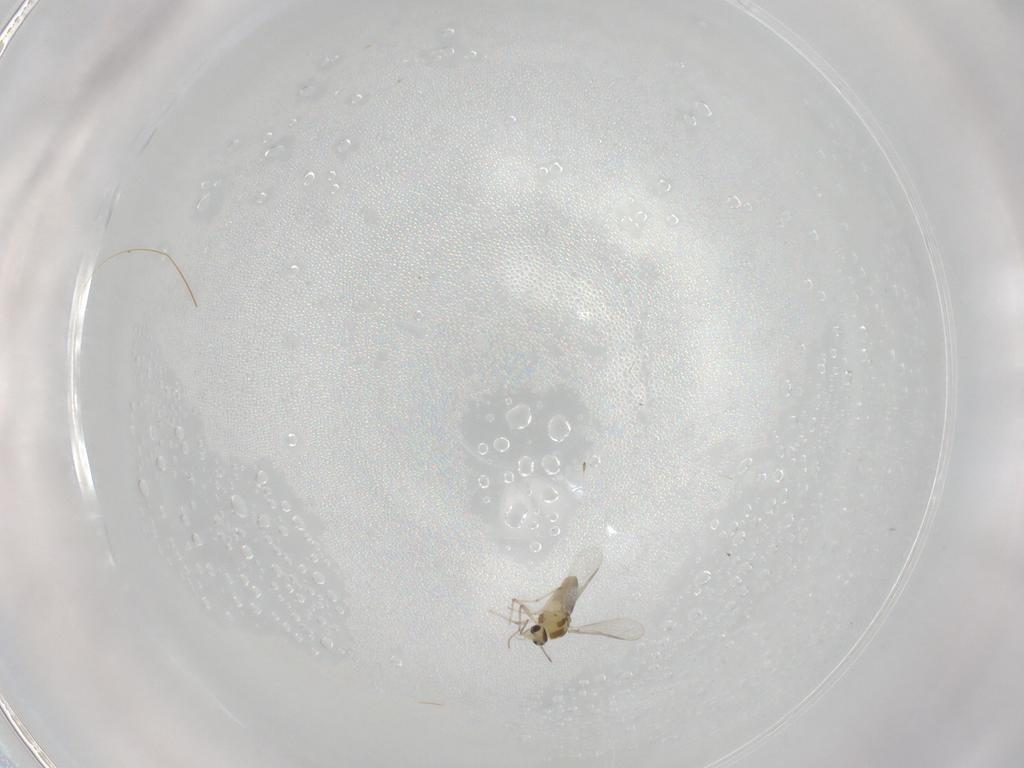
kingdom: Animalia
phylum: Arthropoda
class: Insecta
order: Diptera
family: Chironomidae
